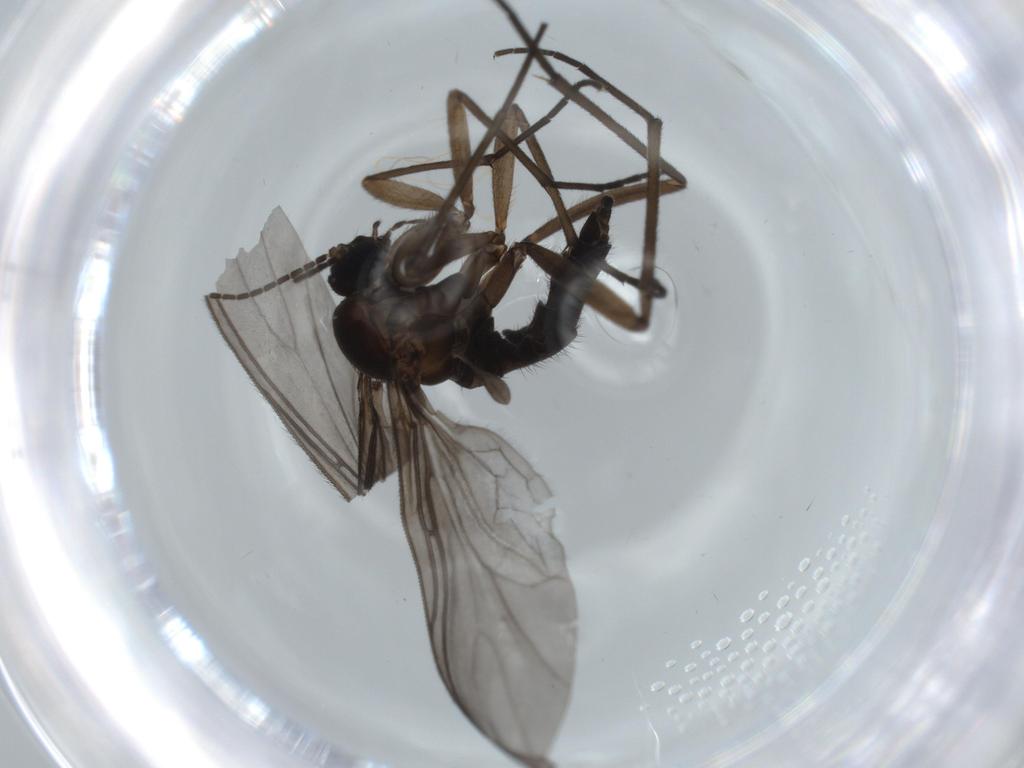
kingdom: Animalia
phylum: Arthropoda
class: Insecta
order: Diptera
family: Sciaridae
